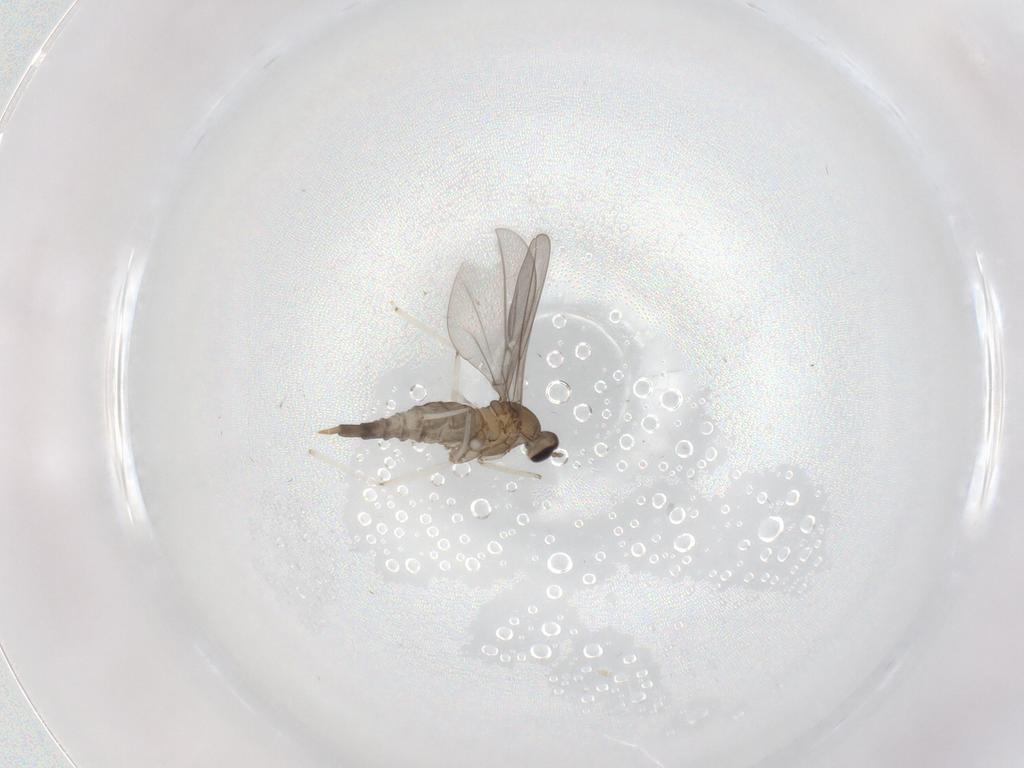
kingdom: Animalia
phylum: Arthropoda
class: Insecta
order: Diptera
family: Cecidomyiidae
